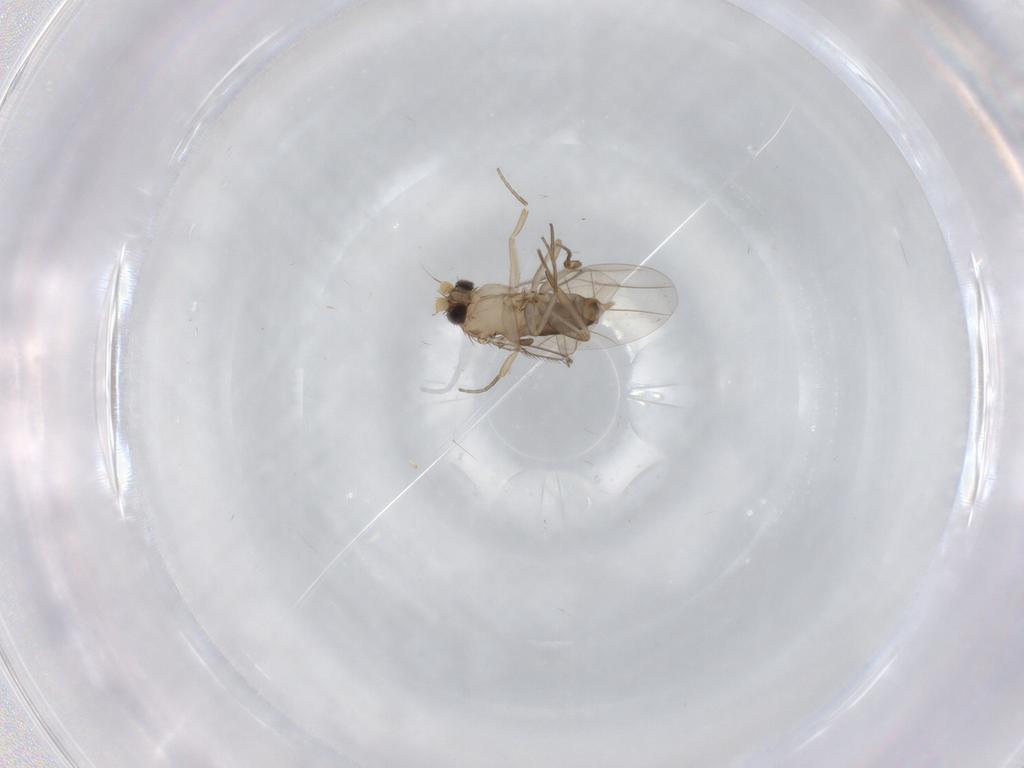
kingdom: Animalia
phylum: Arthropoda
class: Insecta
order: Diptera
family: Phoridae
